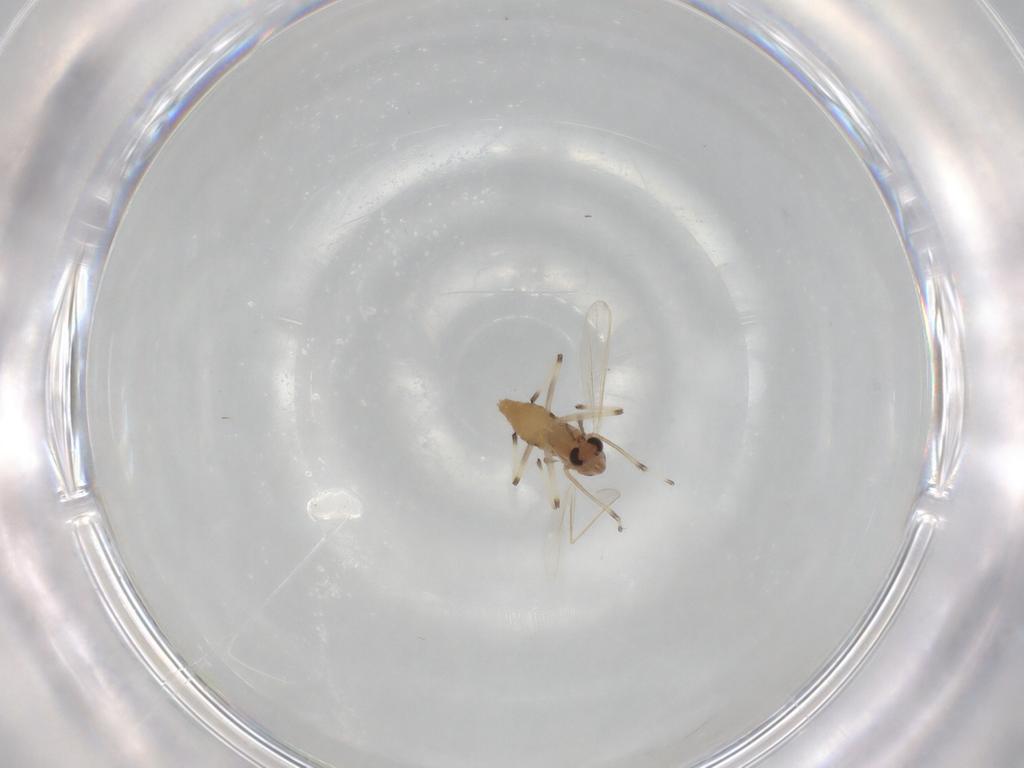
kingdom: Animalia
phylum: Arthropoda
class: Insecta
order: Diptera
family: Chironomidae
